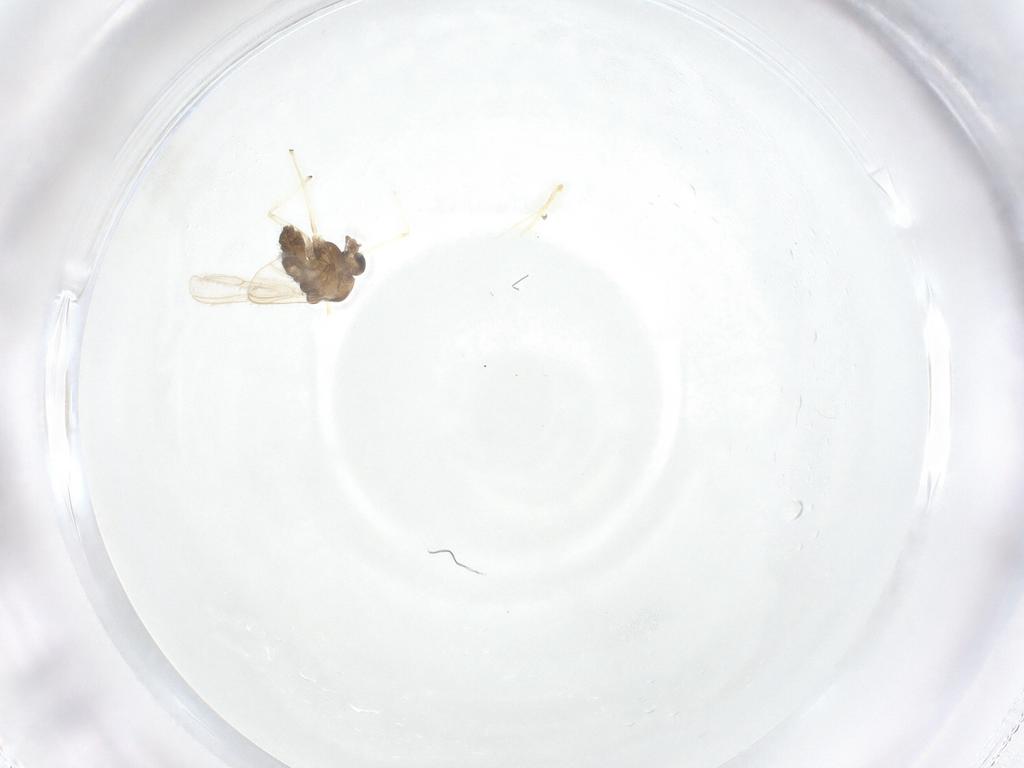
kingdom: Animalia
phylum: Arthropoda
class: Insecta
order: Diptera
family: Chironomidae
